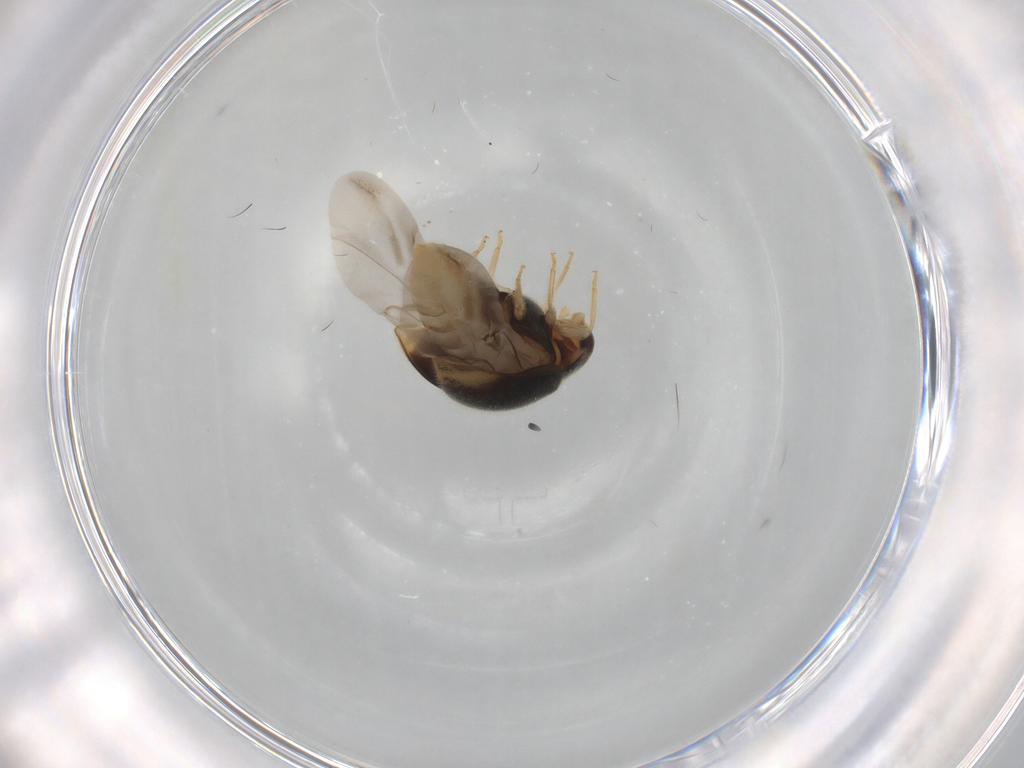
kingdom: Animalia
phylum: Arthropoda
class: Insecta
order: Coleoptera
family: Coccinellidae
